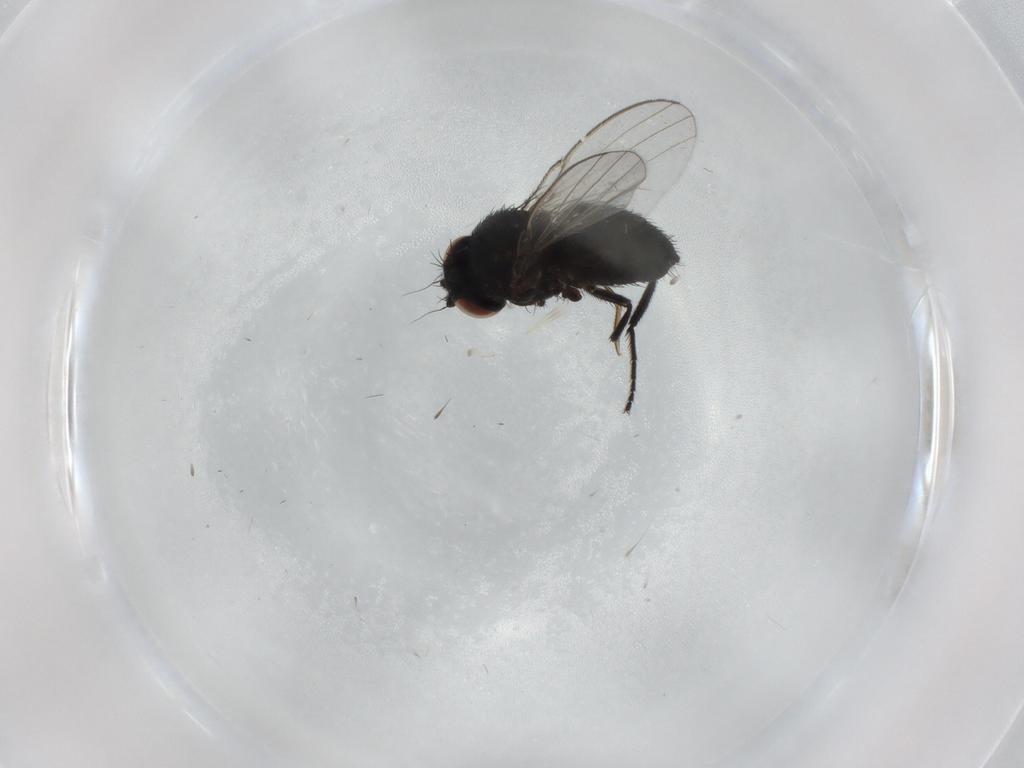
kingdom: Animalia
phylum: Arthropoda
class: Insecta
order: Diptera
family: Milichiidae
